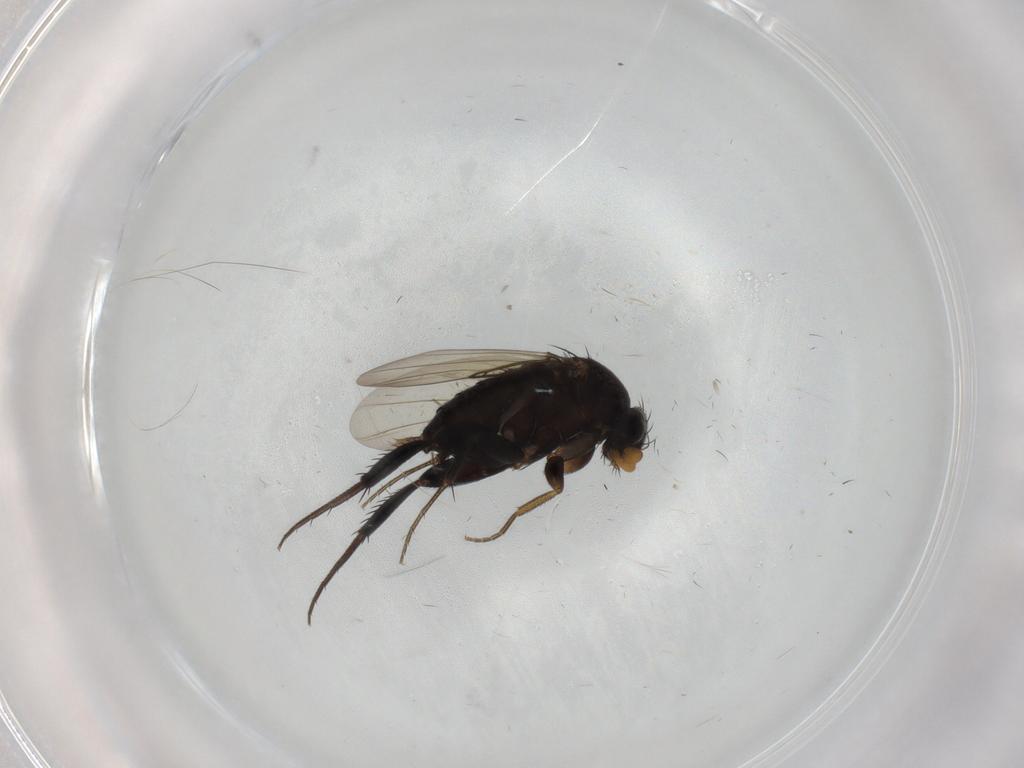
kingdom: Animalia
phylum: Arthropoda
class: Insecta
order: Diptera
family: Phoridae
